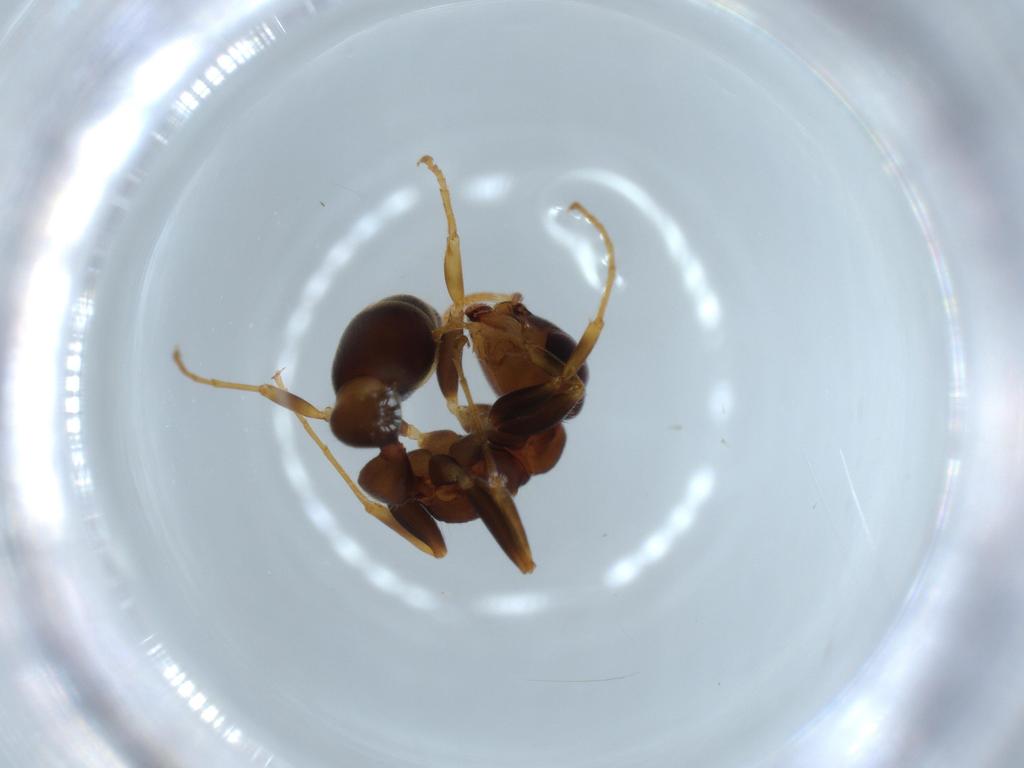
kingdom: Animalia
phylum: Arthropoda
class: Insecta
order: Hymenoptera
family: Formicidae
